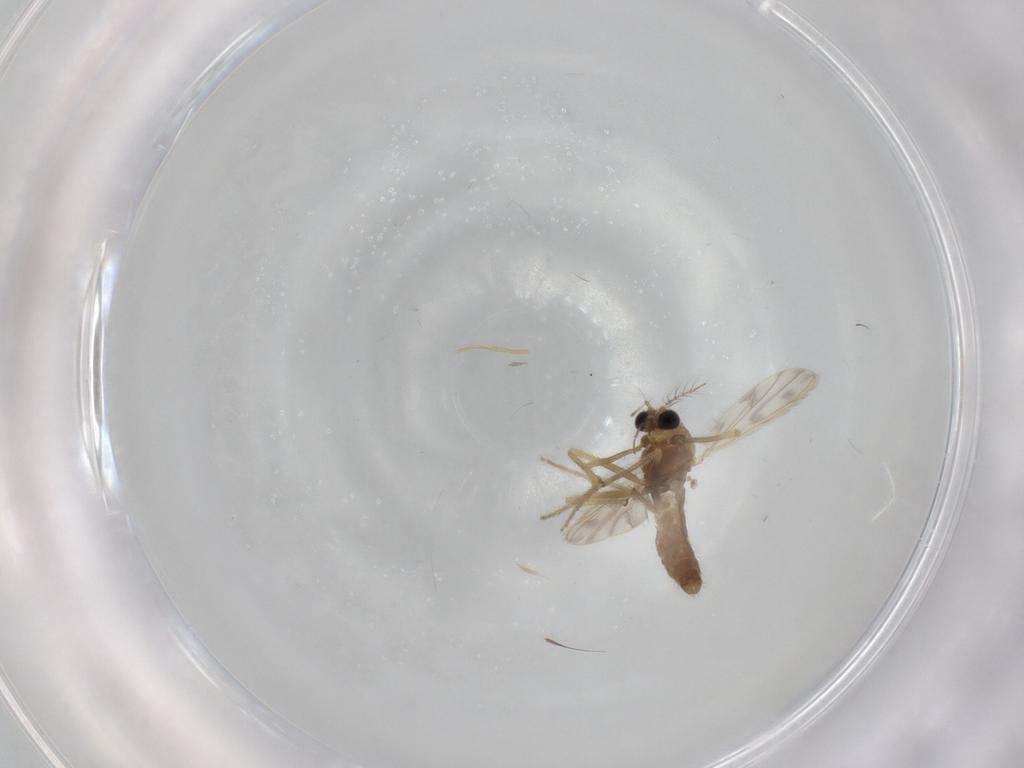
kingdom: Animalia
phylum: Arthropoda
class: Insecta
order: Diptera
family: Chironomidae
